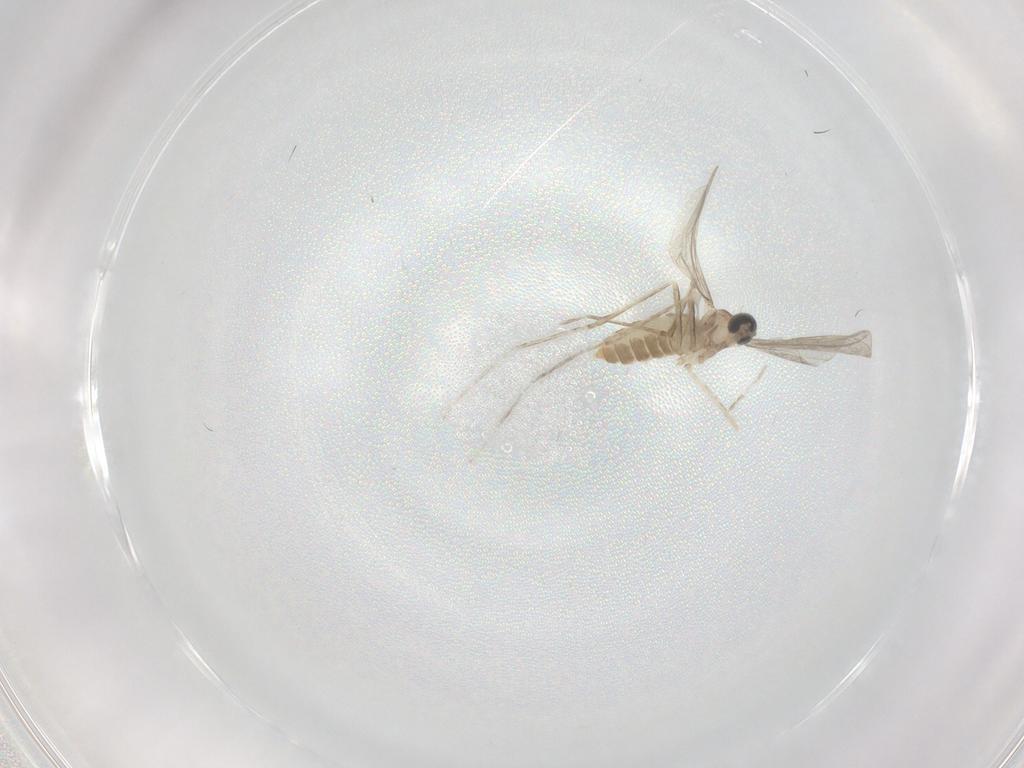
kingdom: Animalia
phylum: Arthropoda
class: Insecta
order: Diptera
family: Cecidomyiidae
